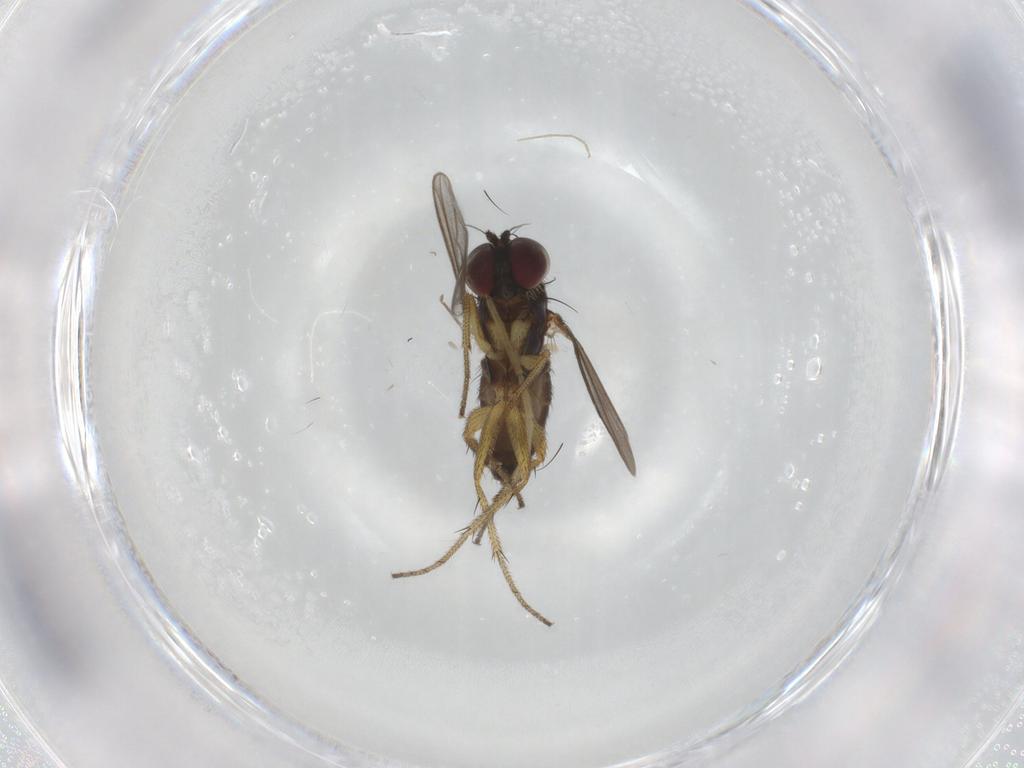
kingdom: Animalia
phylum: Arthropoda
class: Insecta
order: Diptera
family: Chironomidae
